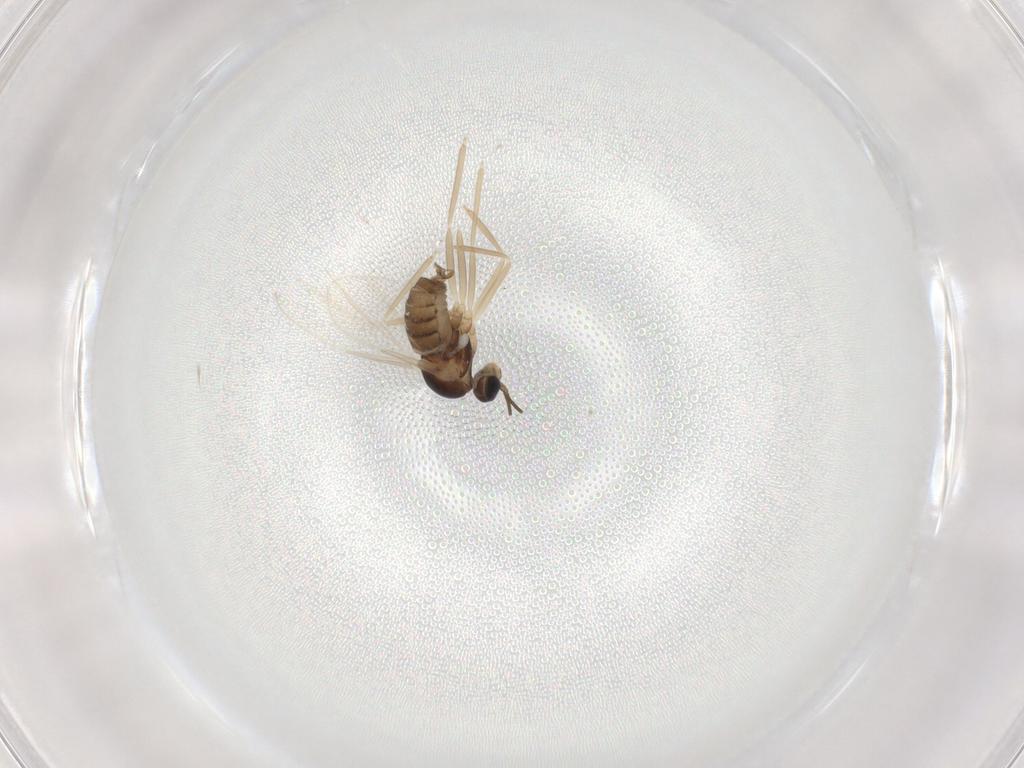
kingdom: Animalia
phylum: Arthropoda
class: Insecta
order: Diptera
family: Cecidomyiidae
